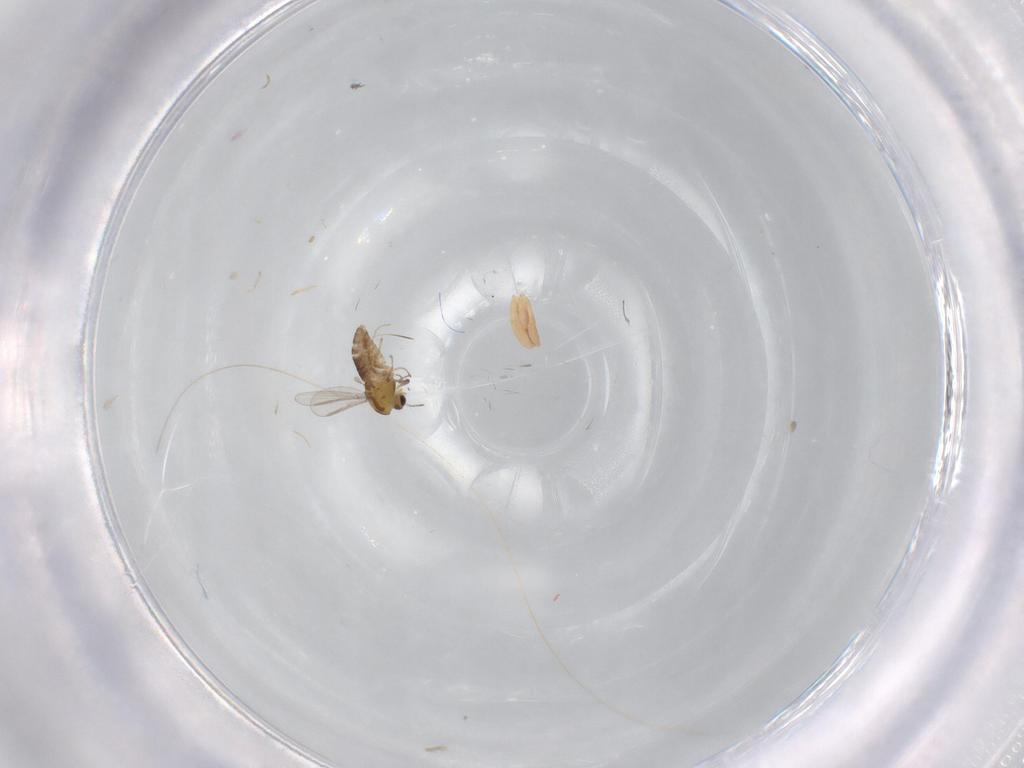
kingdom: Animalia
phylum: Arthropoda
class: Insecta
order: Diptera
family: Chironomidae
